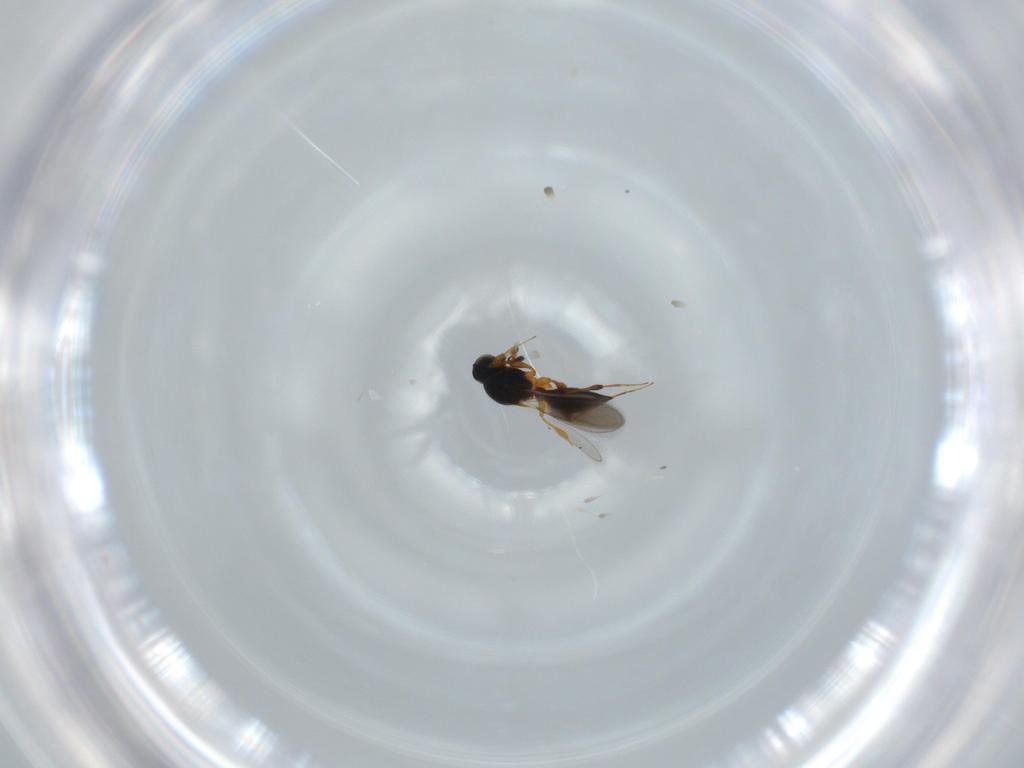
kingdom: Animalia
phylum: Arthropoda
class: Insecta
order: Hymenoptera
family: Platygastridae
